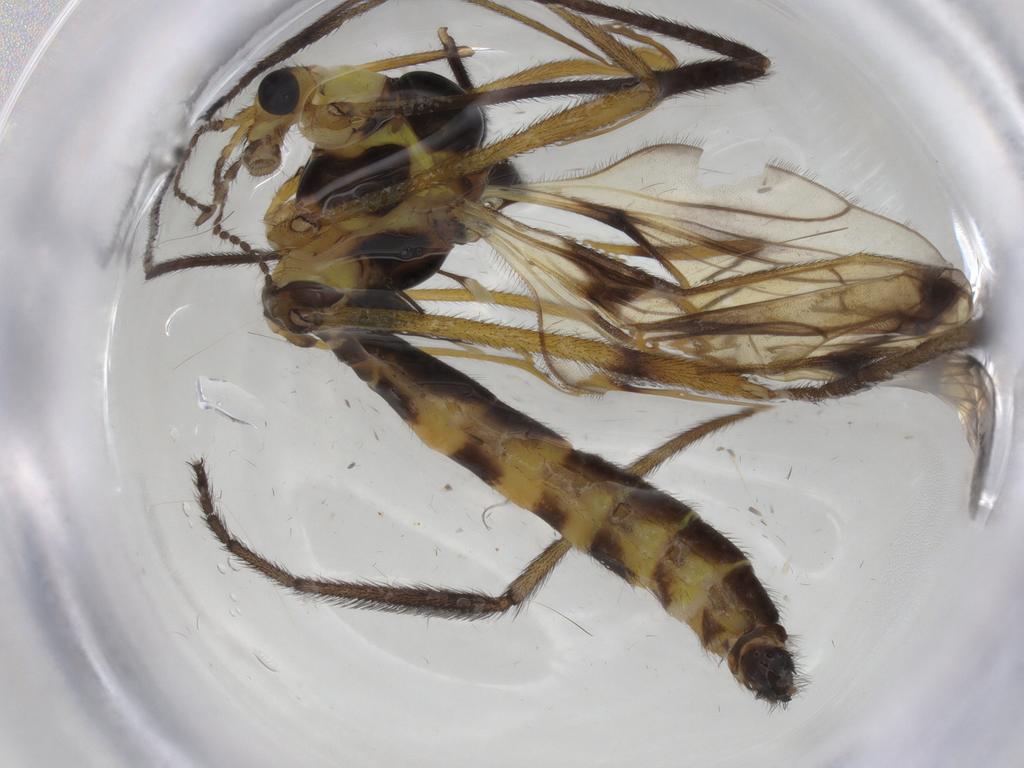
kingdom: Animalia
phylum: Arthropoda
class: Insecta
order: Diptera
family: Limoniidae
